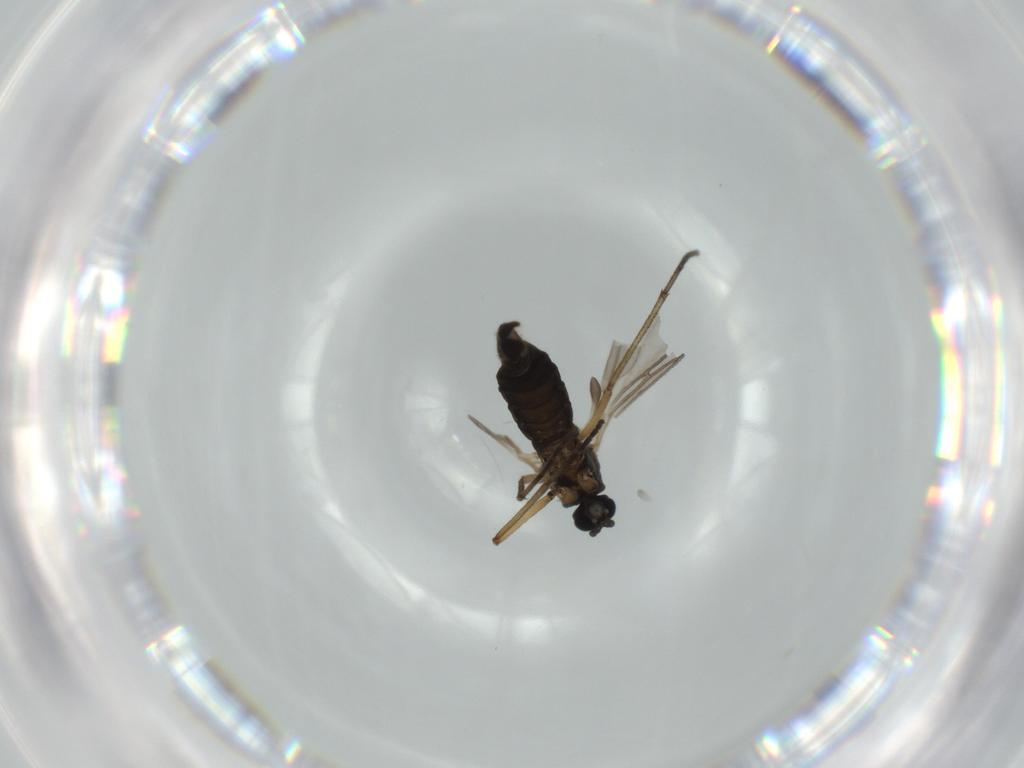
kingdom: Animalia
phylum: Arthropoda
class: Insecta
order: Diptera
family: Sciaridae
